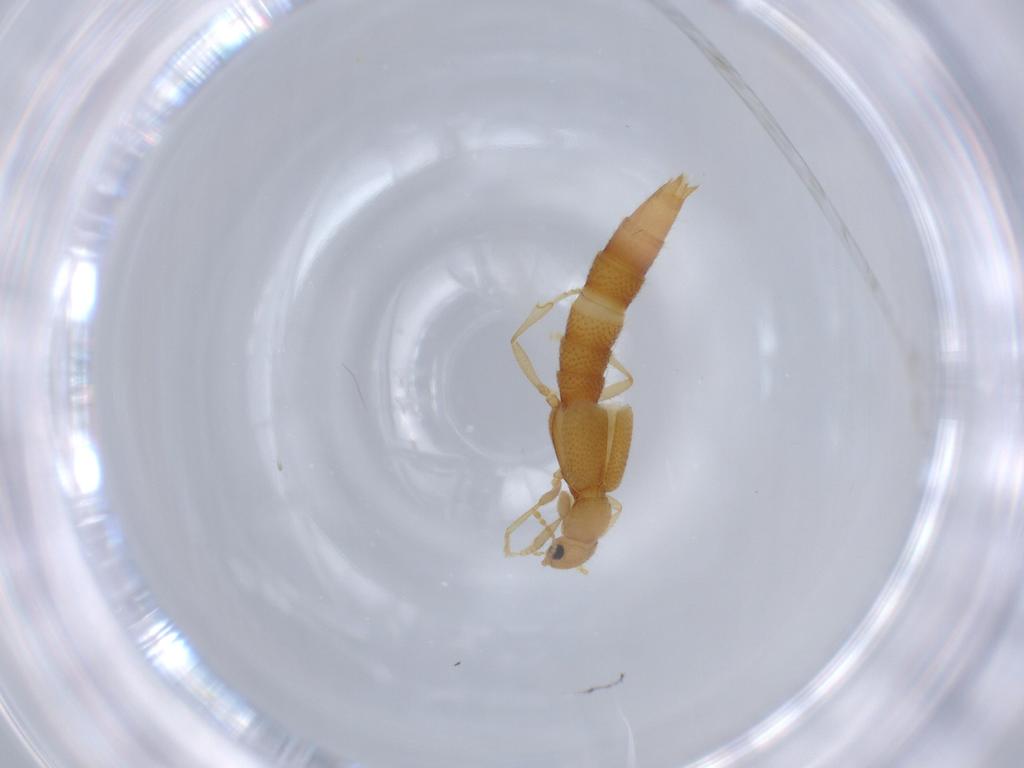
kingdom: Animalia
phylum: Arthropoda
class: Insecta
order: Coleoptera
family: Staphylinidae
